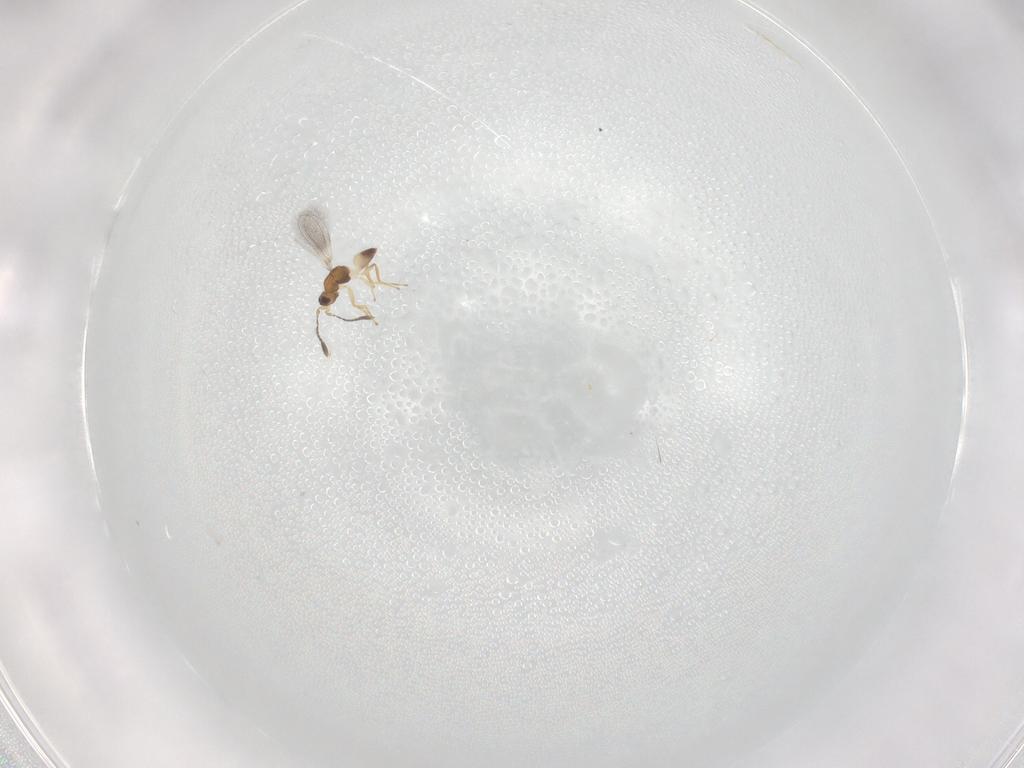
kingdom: Animalia
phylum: Arthropoda
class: Insecta
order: Hymenoptera
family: Mymaridae
